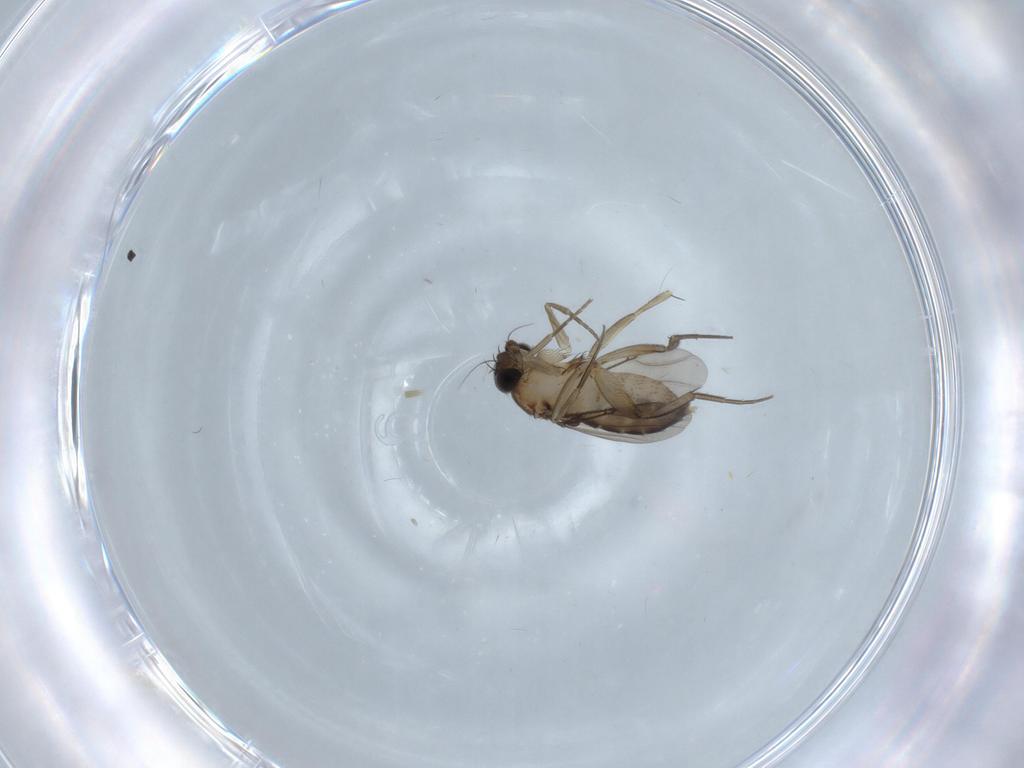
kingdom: Animalia
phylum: Arthropoda
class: Insecta
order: Diptera
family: Phoridae
